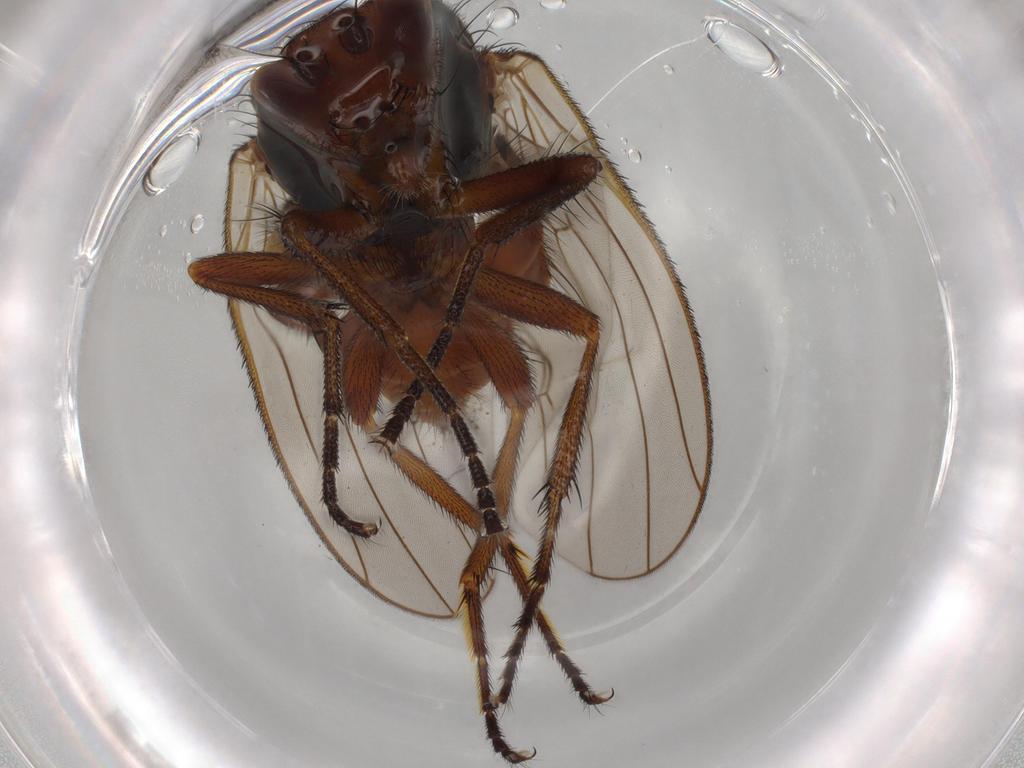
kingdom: Animalia
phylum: Arthropoda
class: Insecta
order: Diptera
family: Heleomyzidae
